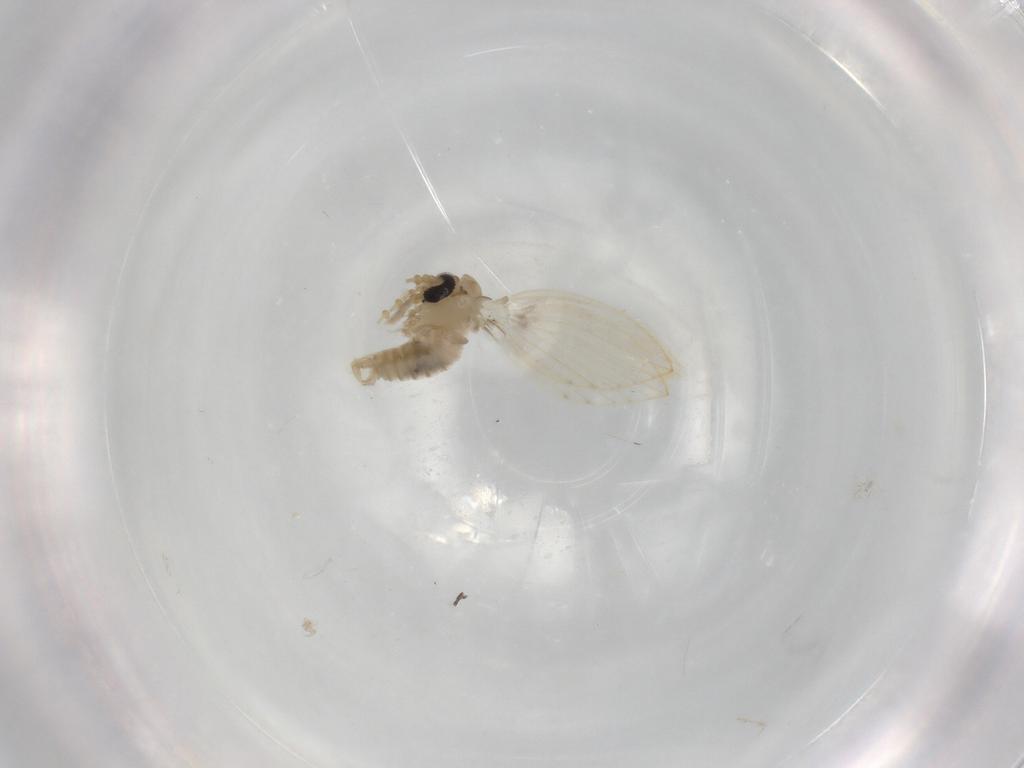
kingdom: Animalia
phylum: Arthropoda
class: Insecta
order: Diptera
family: Psychodidae
